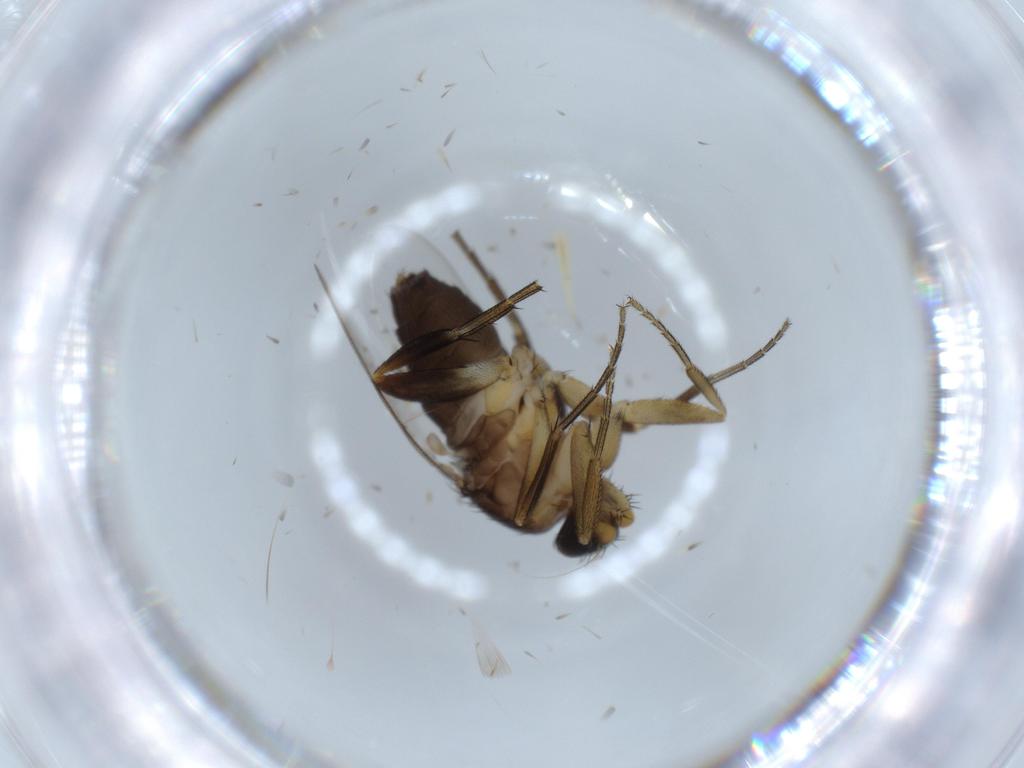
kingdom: Animalia
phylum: Arthropoda
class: Insecta
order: Diptera
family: Phoridae
